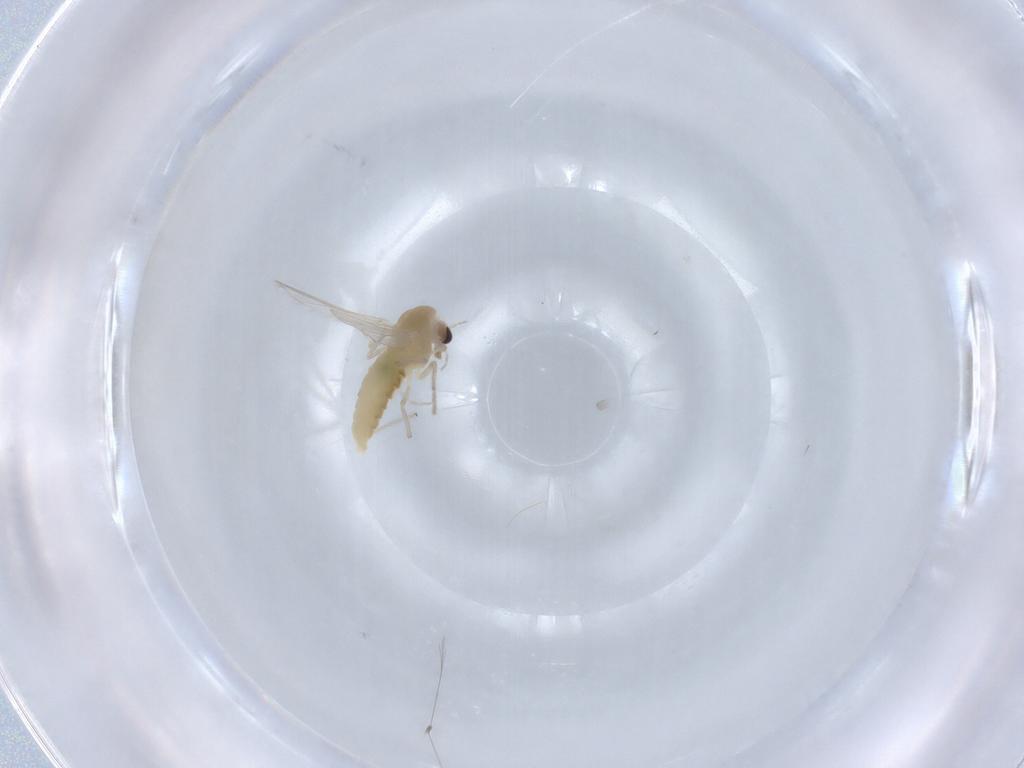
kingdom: Animalia
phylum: Arthropoda
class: Insecta
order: Diptera
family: Chironomidae
